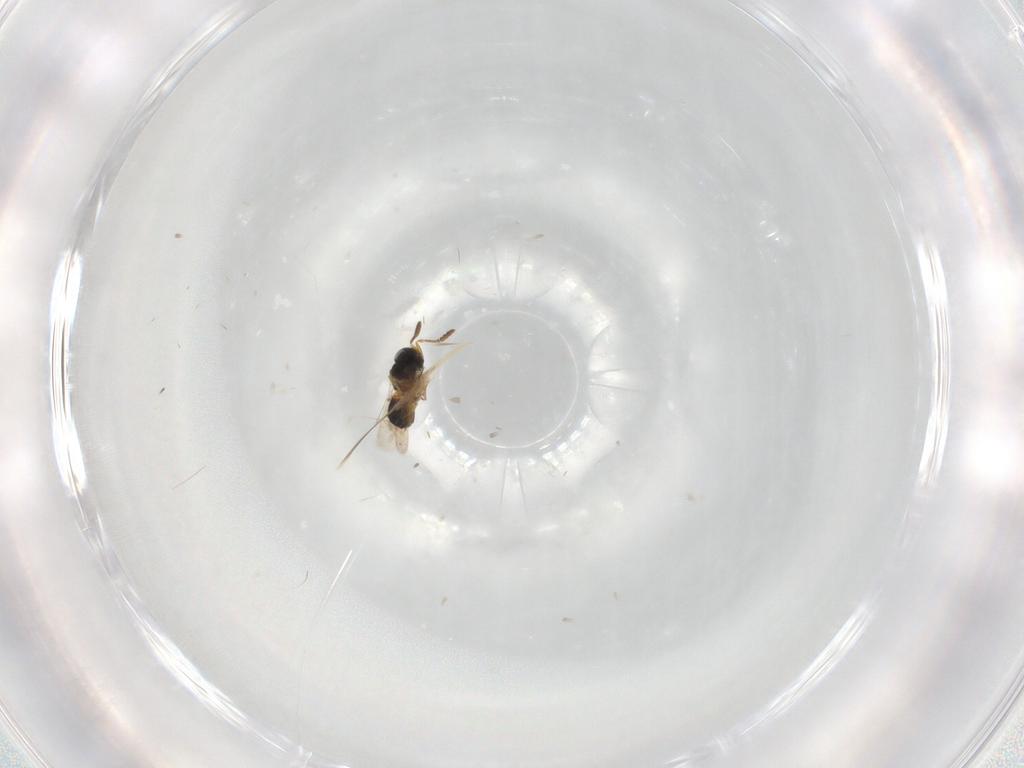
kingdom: Animalia
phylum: Arthropoda
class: Insecta
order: Hymenoptera
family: Scelionidae
